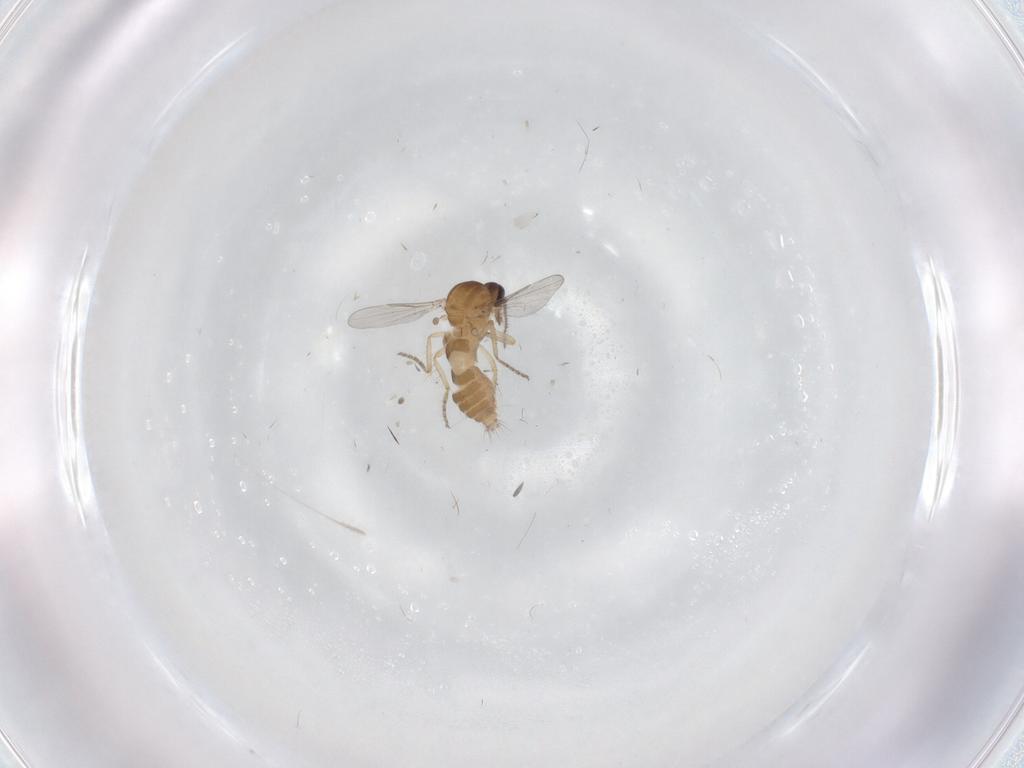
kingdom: Animalia
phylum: Arthropoda
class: Insecta
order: Diptera
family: Ceratopogonidae
